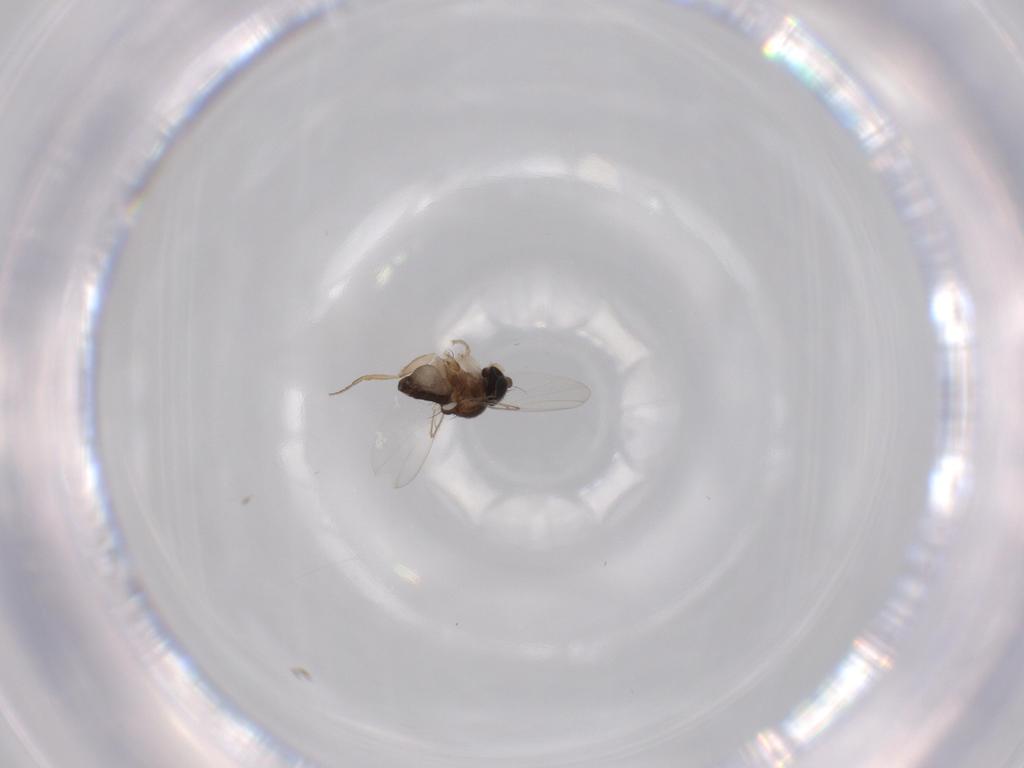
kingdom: Animalia
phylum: Arthropoda
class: Insecta
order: Diptera
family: Phoridae
